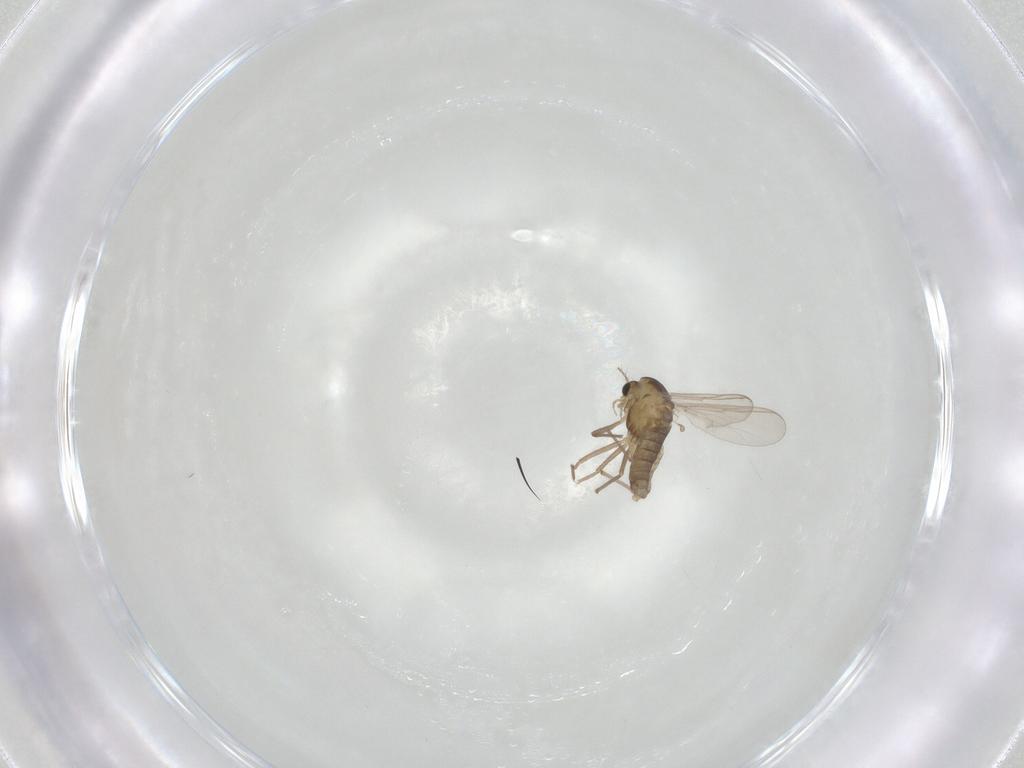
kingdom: Animalia
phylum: Arthropoda
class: Insecta
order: Diptera
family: Chironomidae
